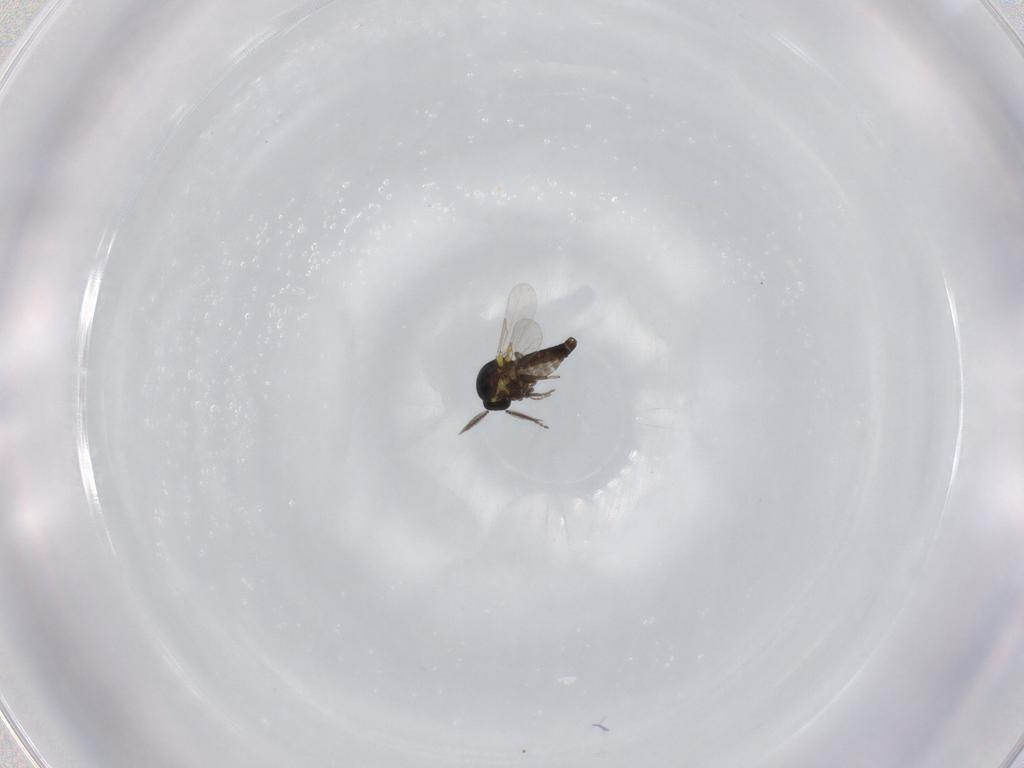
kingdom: Animalia
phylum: Arthropoda
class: Insecta
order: Diptera
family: Ceratopogonidae
